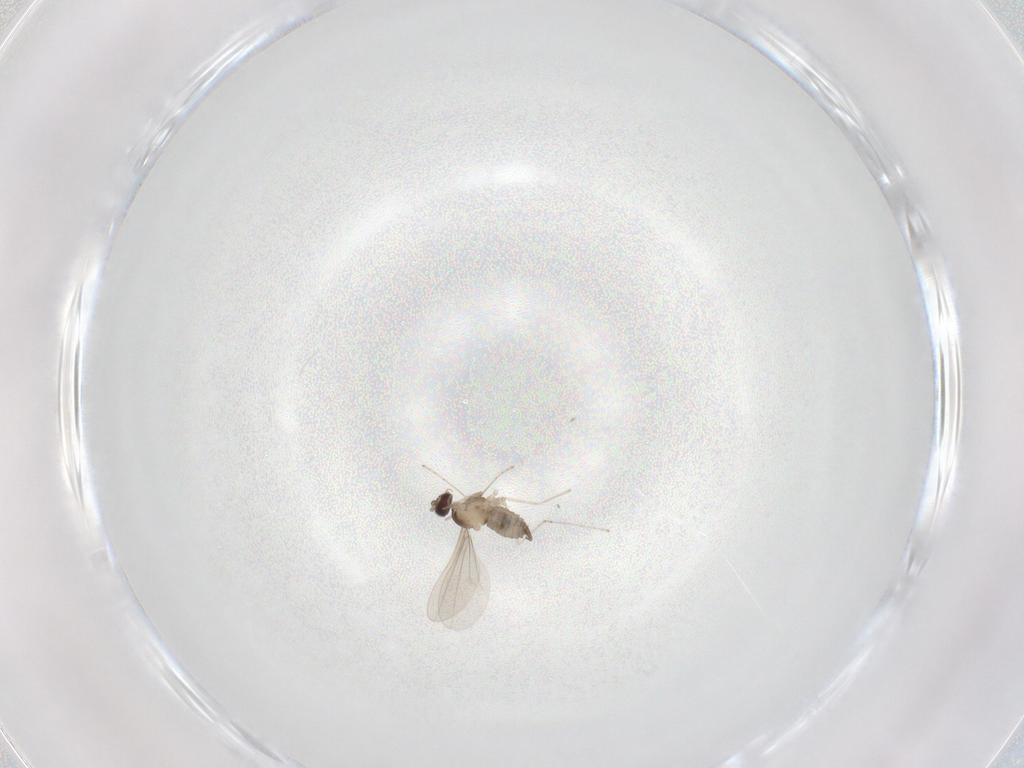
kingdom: Animalia
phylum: Arthropoda
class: Insecta
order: Diptera
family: Cecidomyiidae
